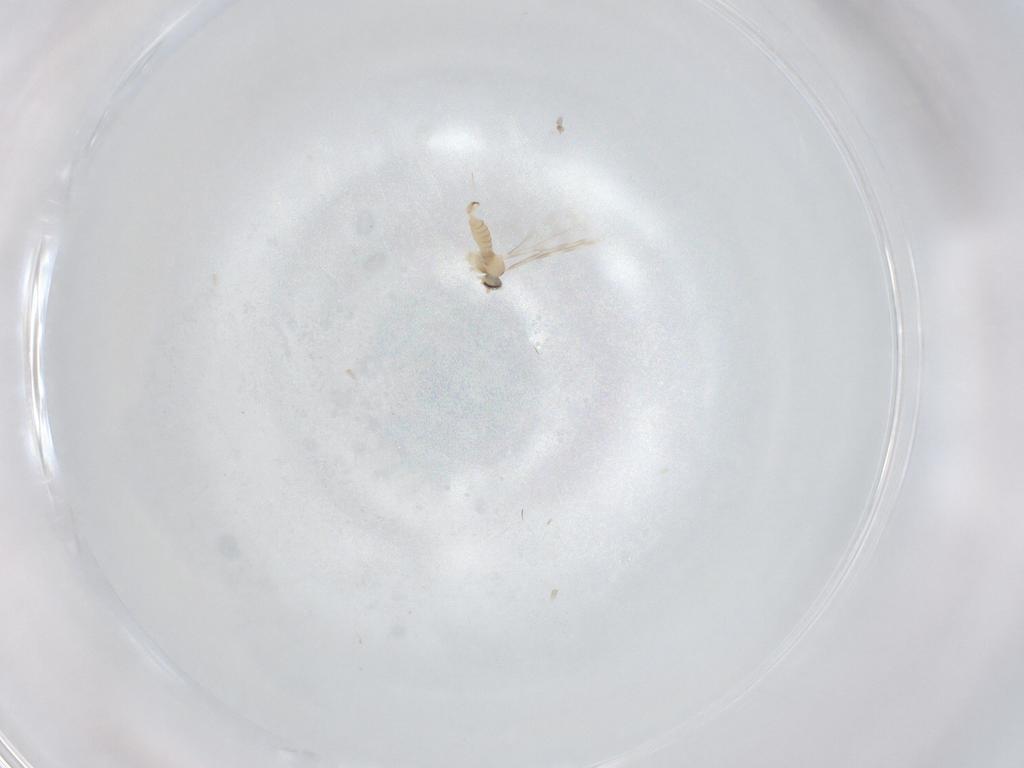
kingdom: Animalia
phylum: Arthropoda
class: Insecta
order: Diptera
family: Cecidomyiidae
